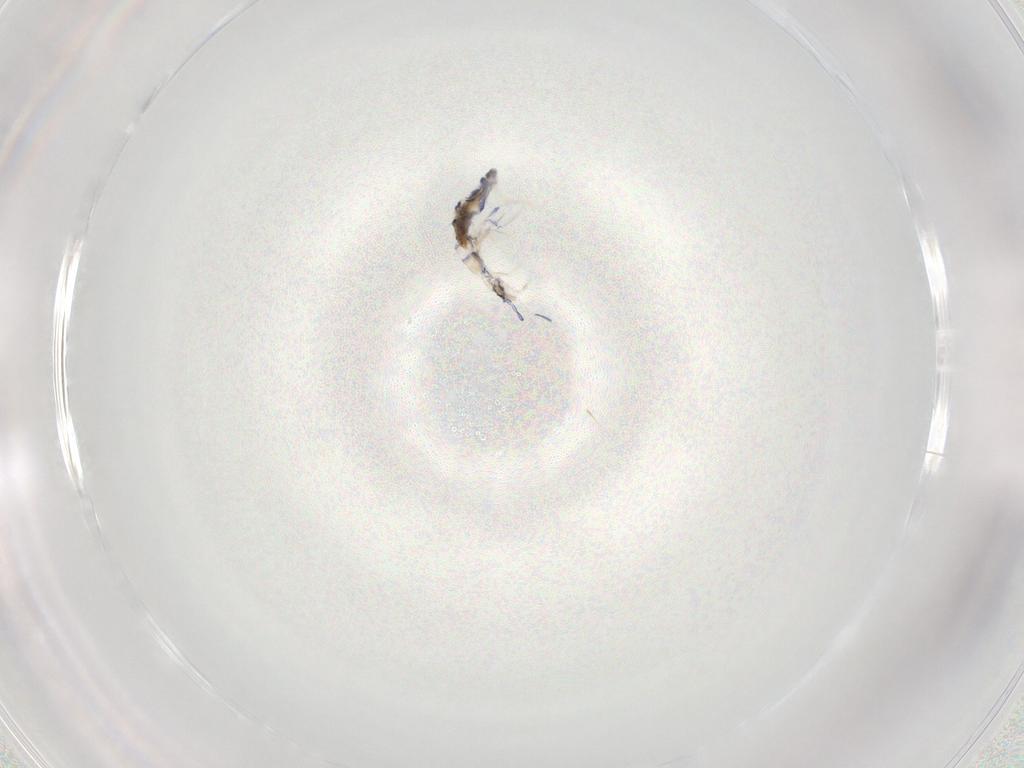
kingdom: Animalia
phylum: Arthropoda
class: Collembola
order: Entomobryomorpha
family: Entomobryidae
